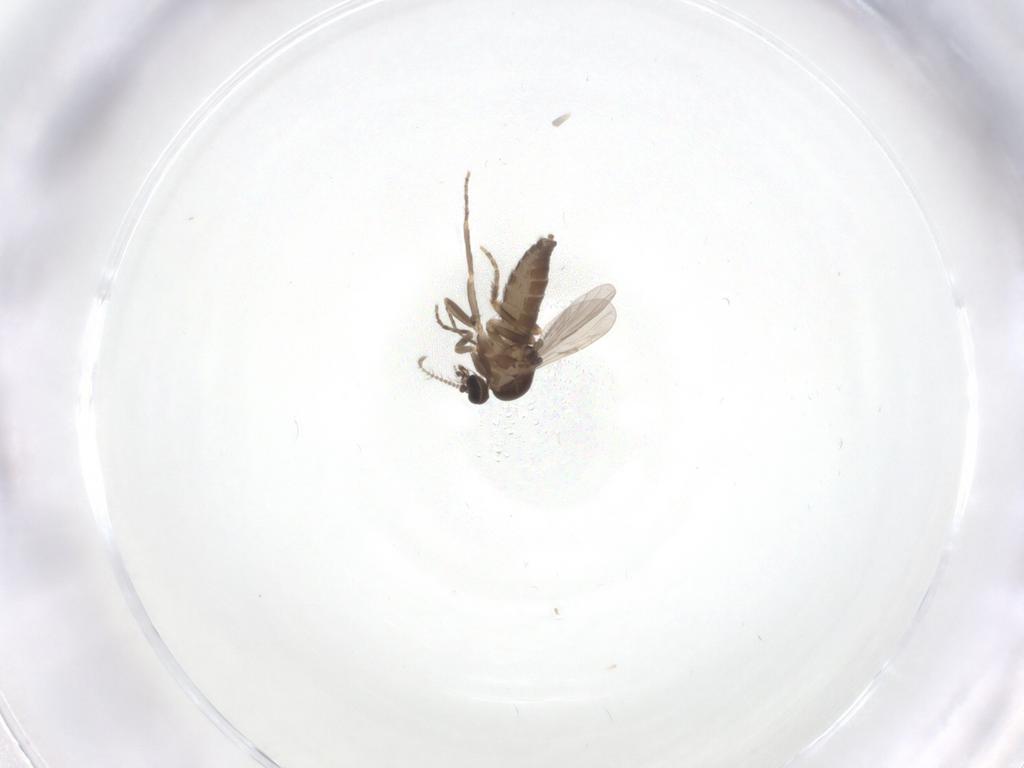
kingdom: Animalia
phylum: Arthropoda
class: Insecta
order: Diptera
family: Ceratopogonidae
